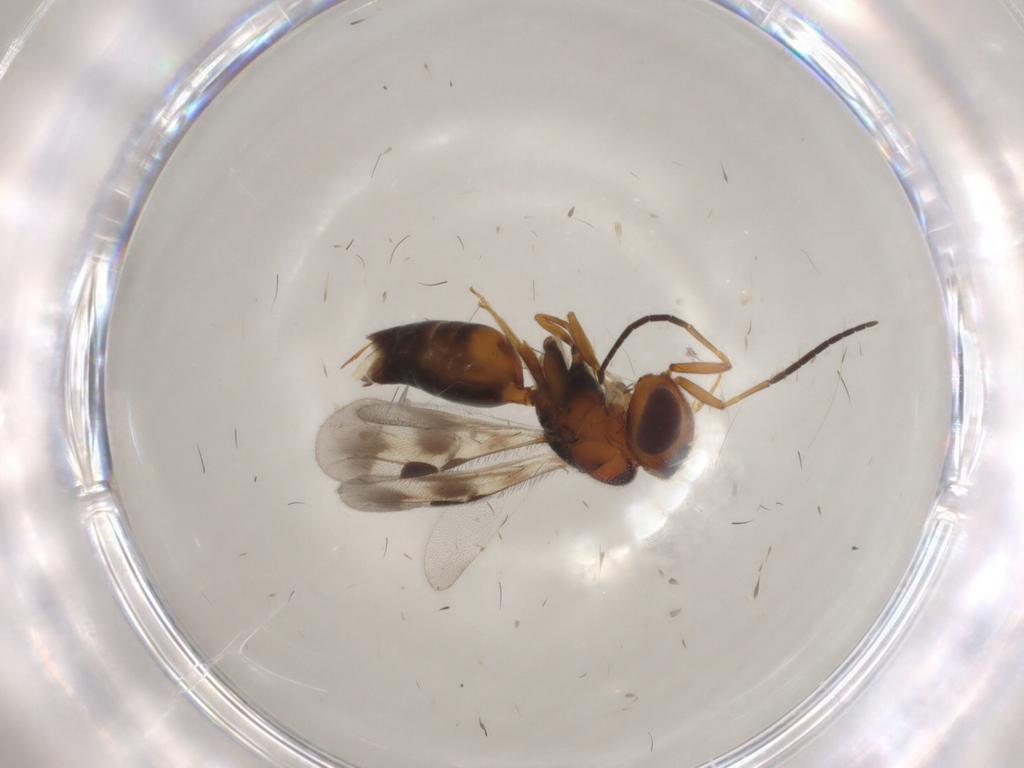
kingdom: Animalia
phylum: Arthropoda
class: Insecta
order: Hymenoptera
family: Megaspilidae
